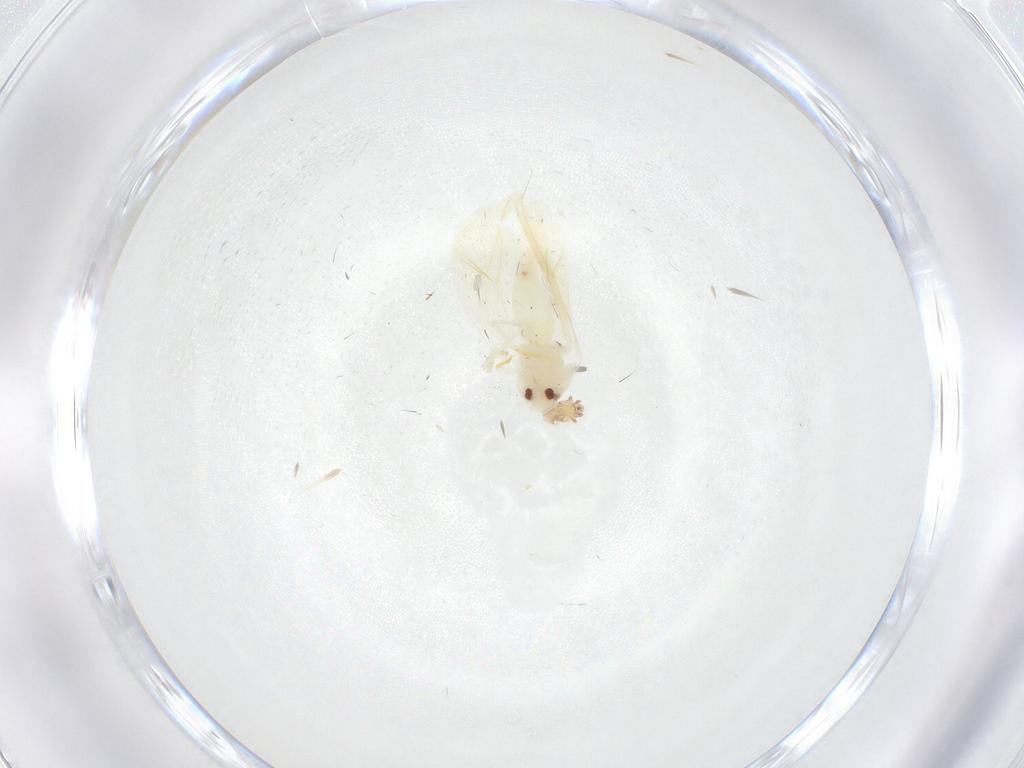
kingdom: Animalia
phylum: Arthropoda
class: Insecta
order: Hemiptera
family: Aleyrodidae
